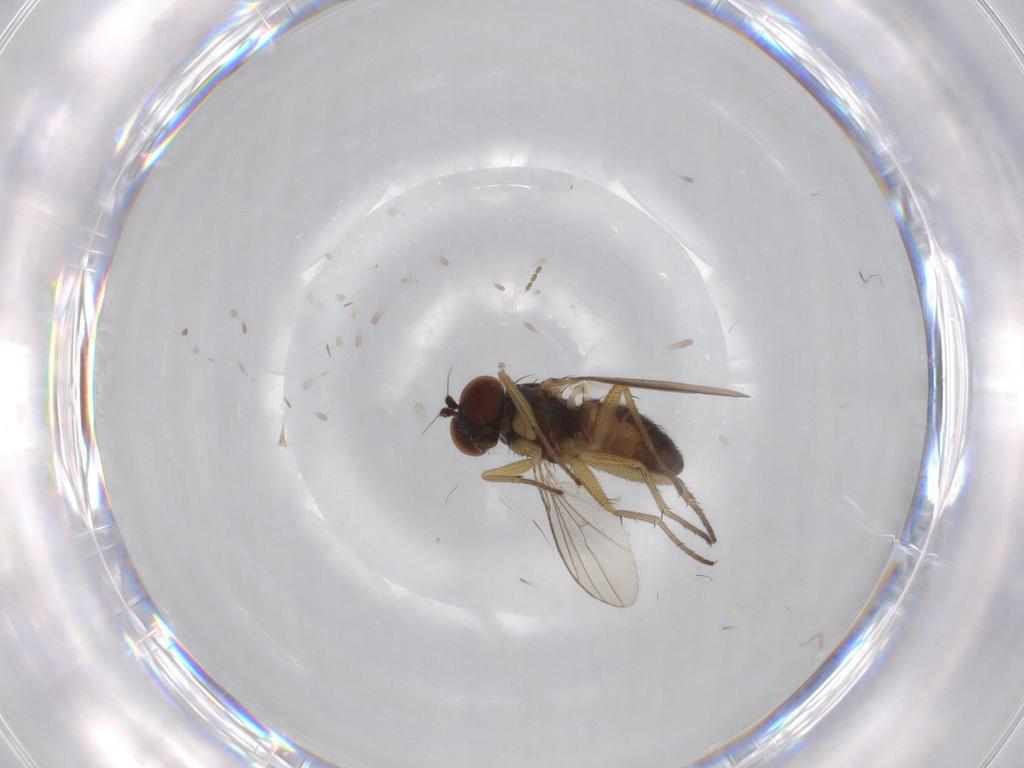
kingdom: Animalia
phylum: Arthropoda
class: Insecta
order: Diptera
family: Dolichopodidae
